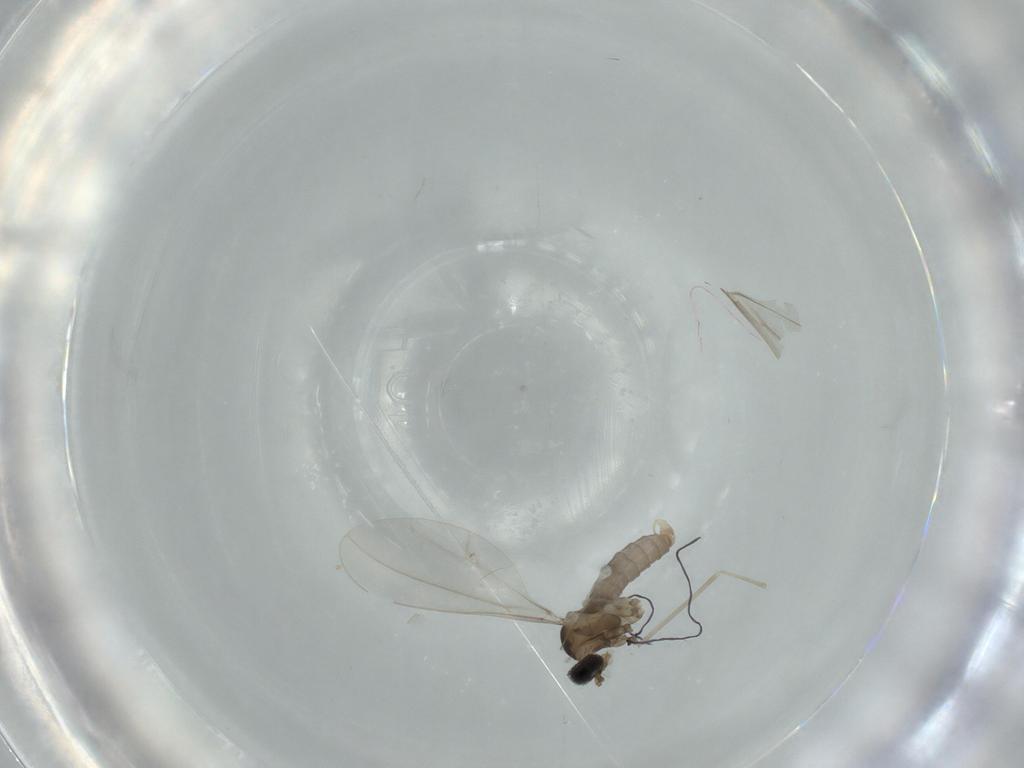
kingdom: Animalia
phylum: Arthropoda
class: Insecta
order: Diptera
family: Cecidomyiidae
